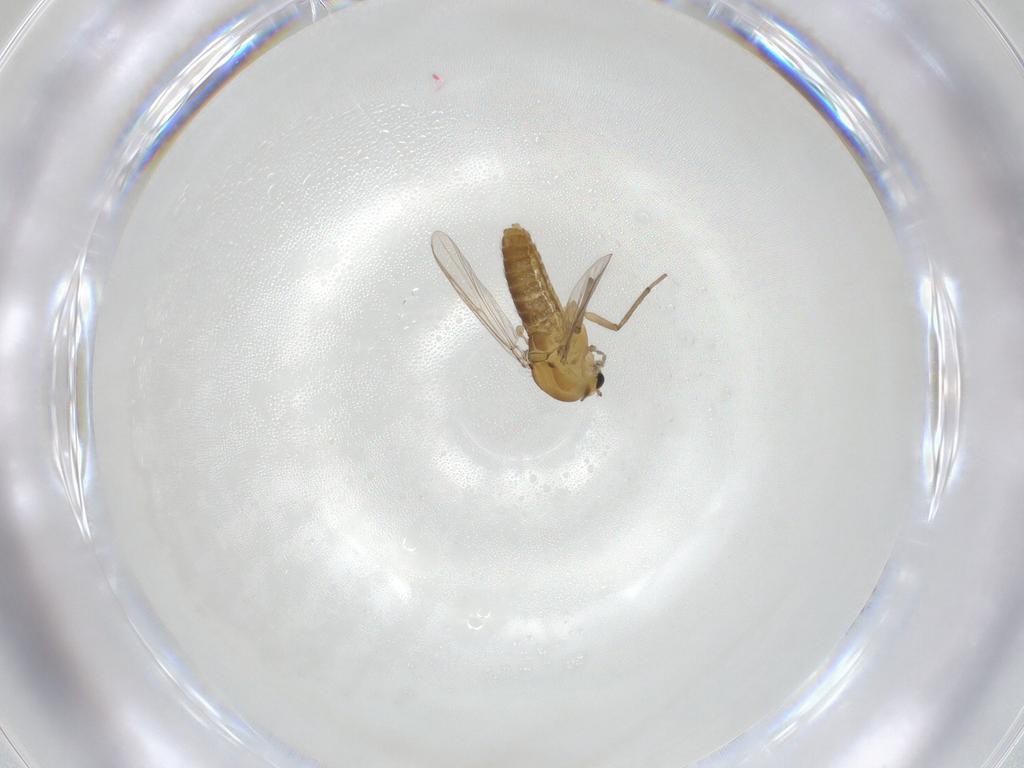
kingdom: Animalia
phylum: Arthropoda
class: Insecta
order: Diptera
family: Chironomidae
